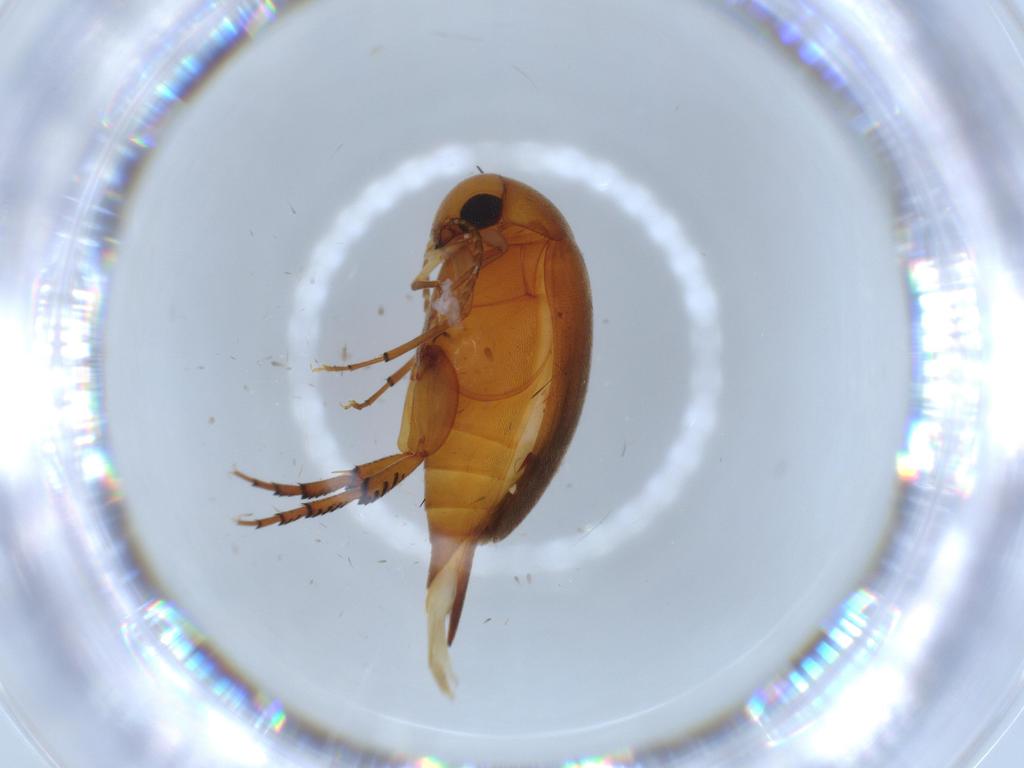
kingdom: Animalia
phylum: Arthropoda
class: Insecta
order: Coleoptera
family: Mordellidae
